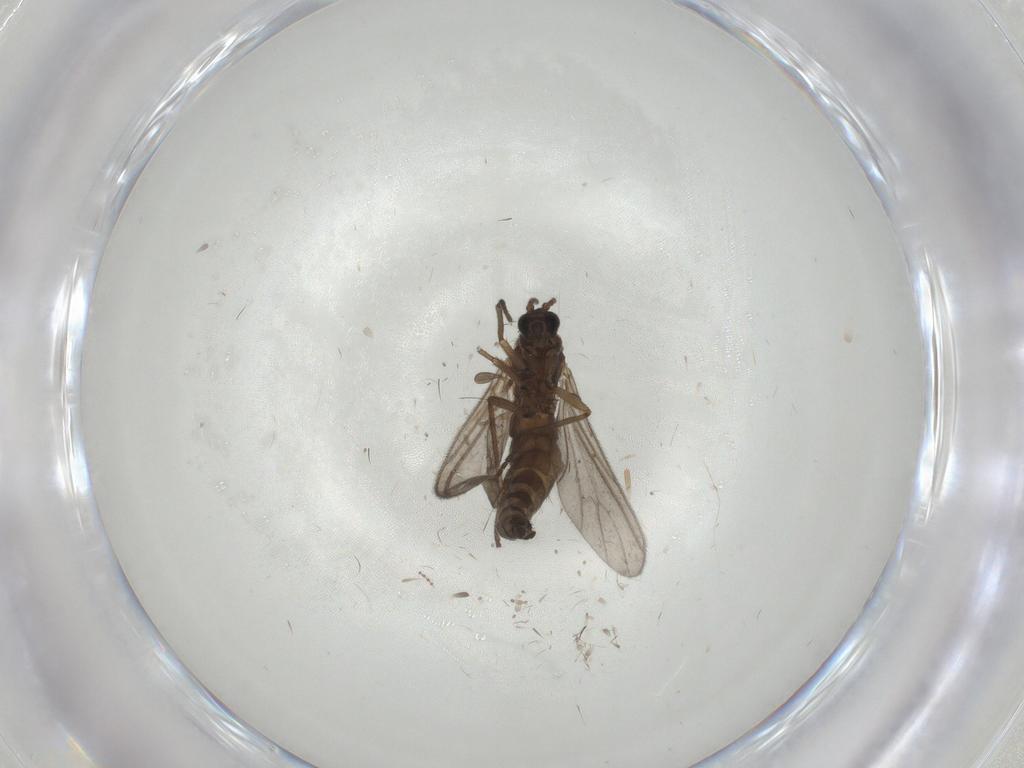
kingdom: Animalia
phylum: Arthropoda
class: Insecta
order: Diptera
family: Sciaridae
